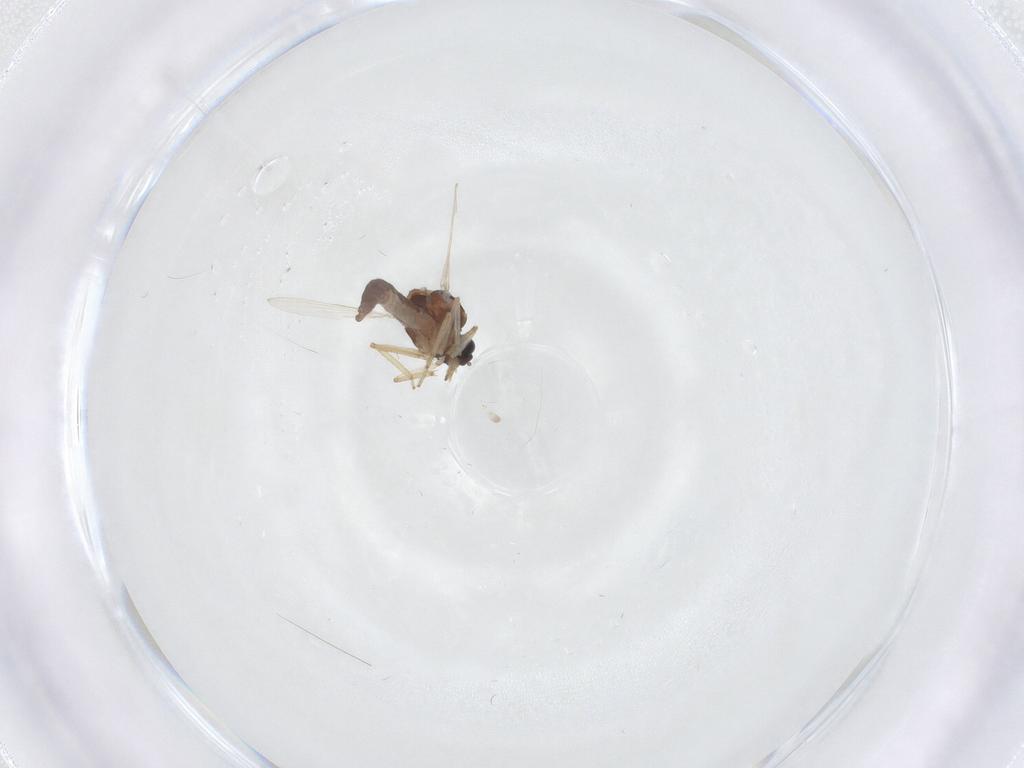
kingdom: Animalia
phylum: Arthropoda
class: Insecta
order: Diptera
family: Ceratopogonidae
